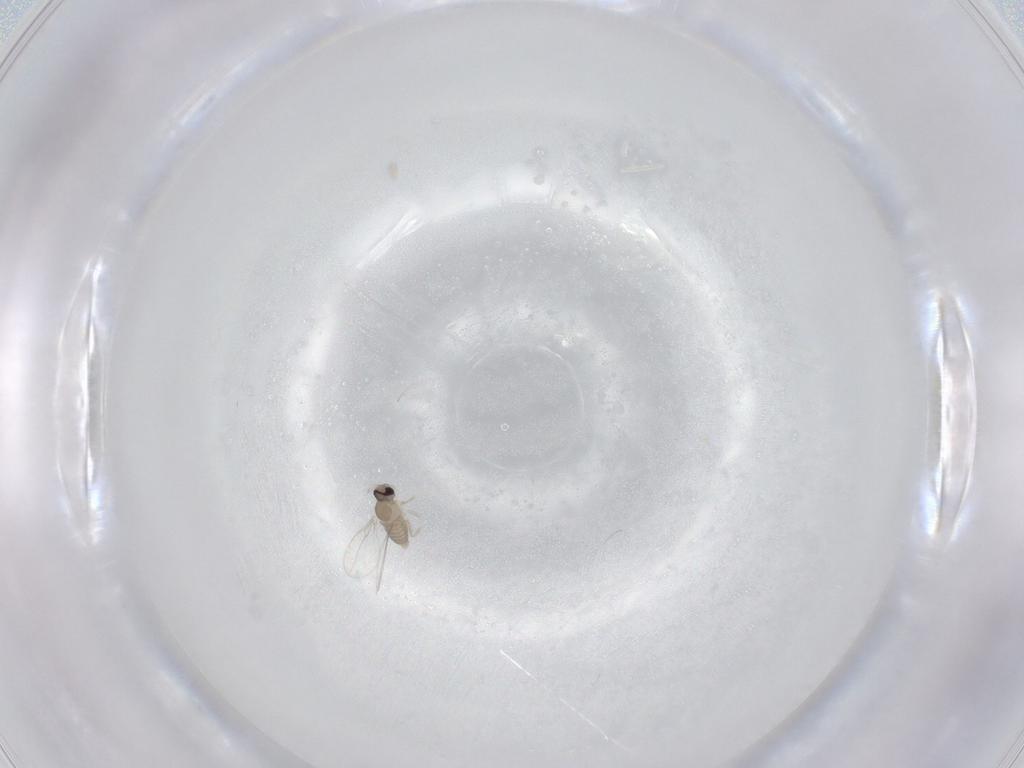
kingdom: Animalia
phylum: Arthropoda
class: Insecta
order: Diptera
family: Cecidomyiidae
